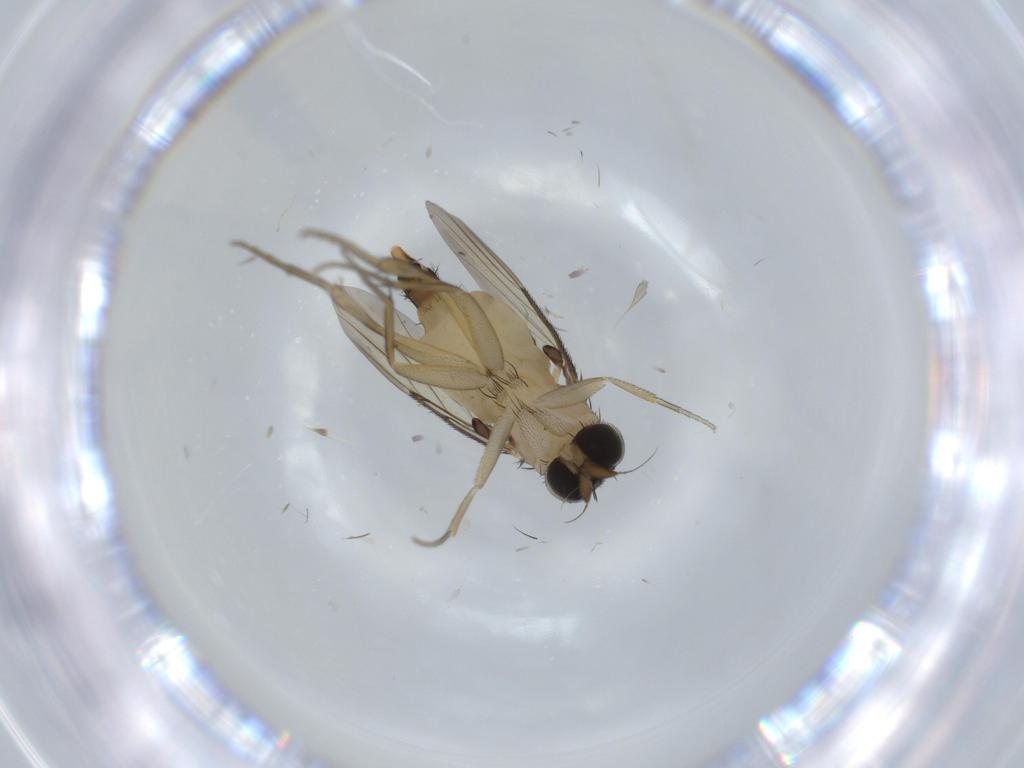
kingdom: Animalia
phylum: Arthropoda
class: Insecta
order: Diptera
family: Phoridae
